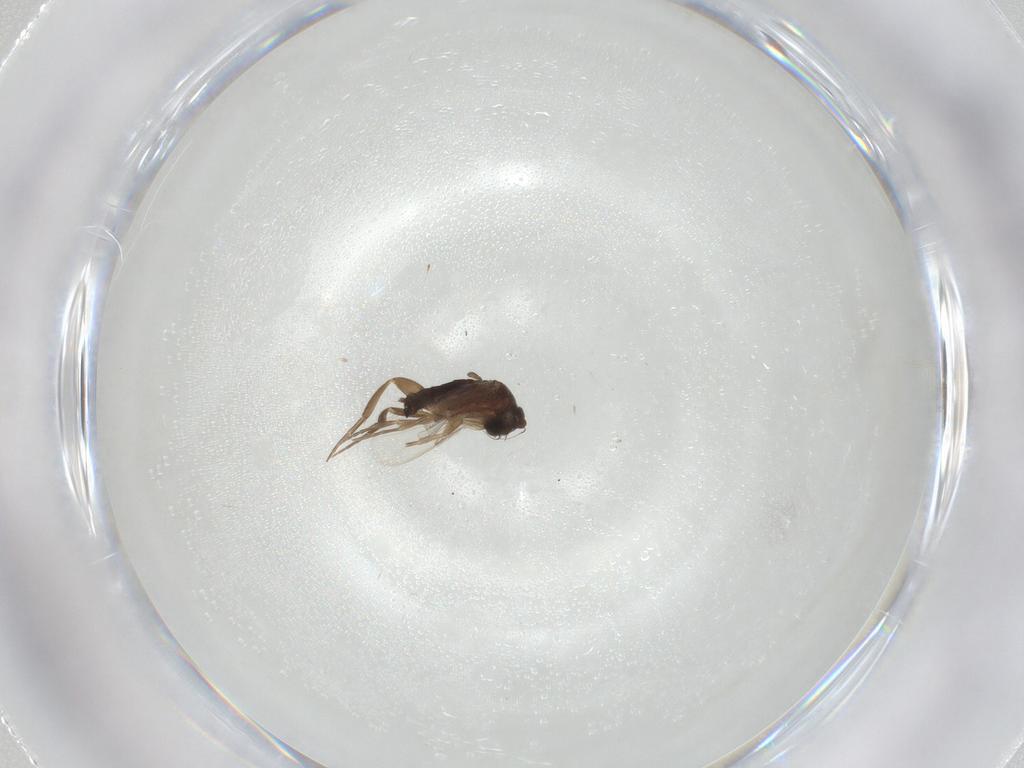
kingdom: Animalia
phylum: Arthropoda
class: Insecta
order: Diptera
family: Phoridae
